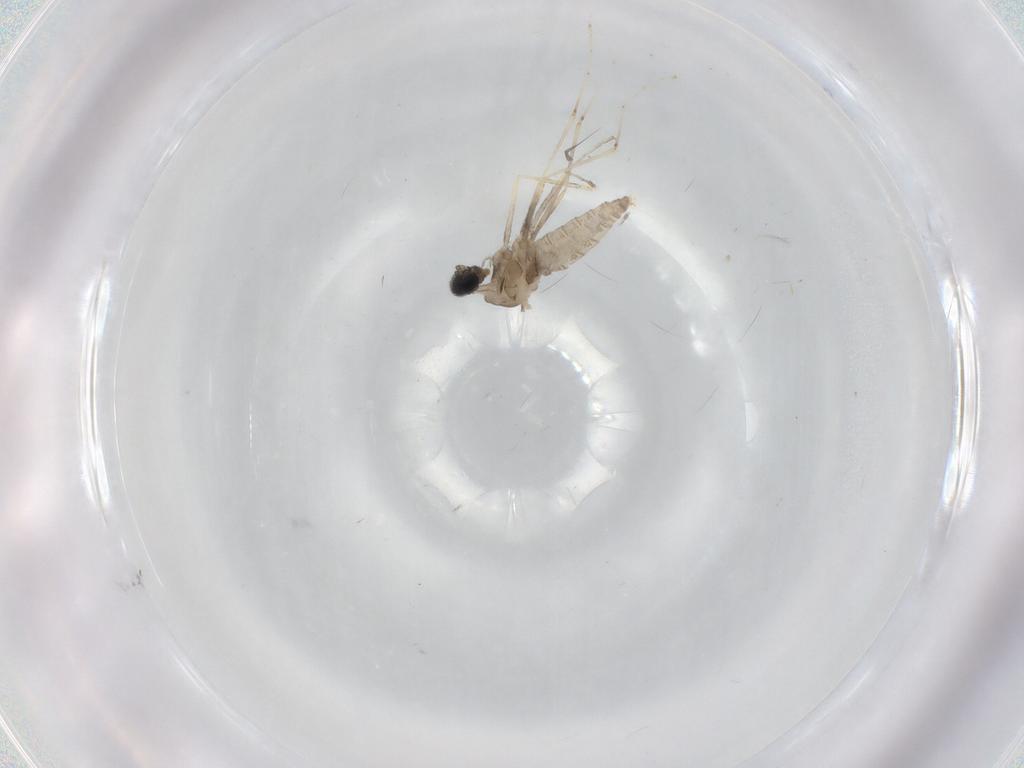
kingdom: Animalia
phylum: Arthropoda
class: Insecta
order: Diptera
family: Cecidomyiidae
